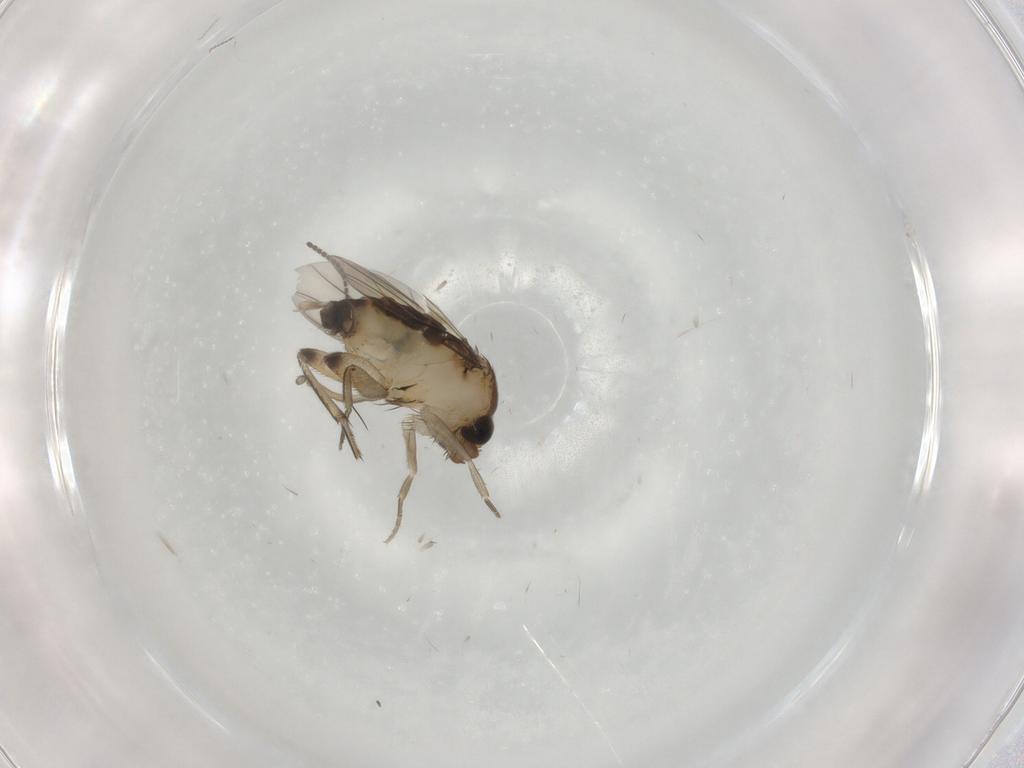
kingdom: Animalia
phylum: Arthropoda
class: Insecta
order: Diptera
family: Phoridae
